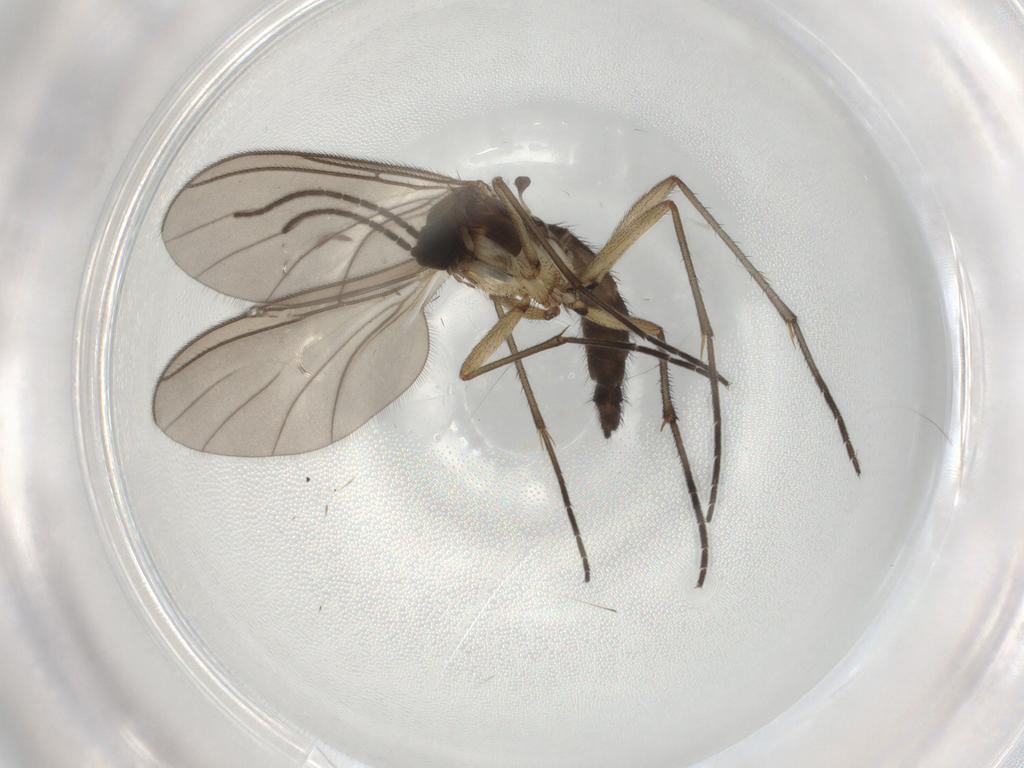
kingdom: Animalia
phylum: Arthropoda
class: Insecta
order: Diptera
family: Sciaridae
